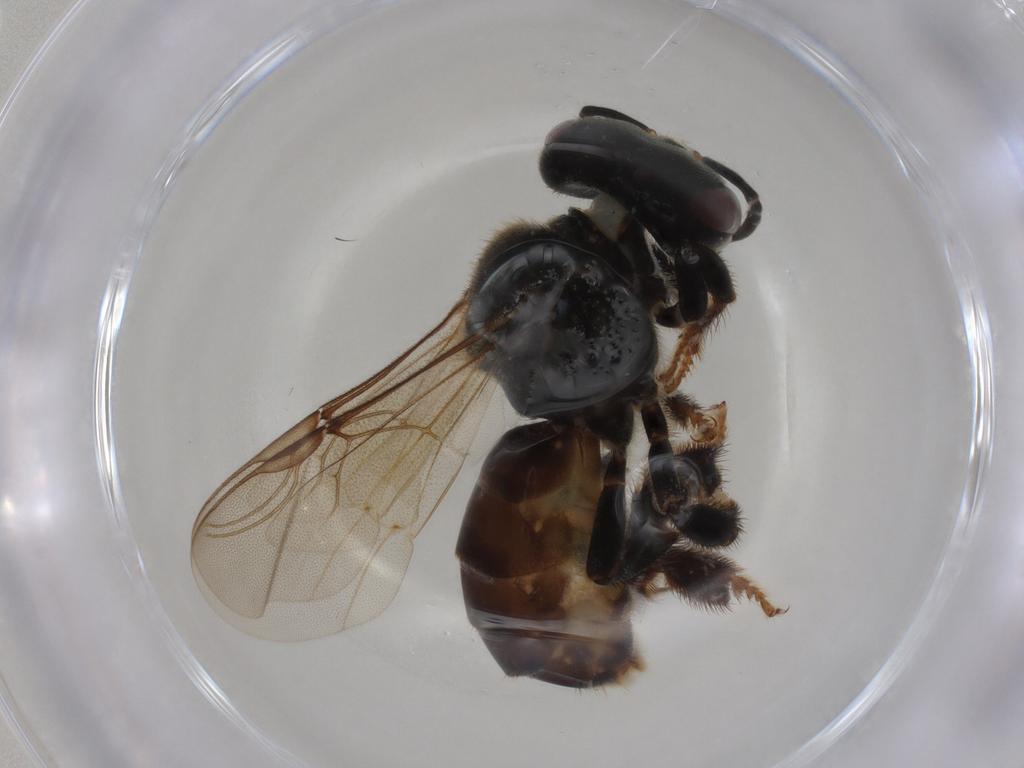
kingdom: Animalia
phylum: Arthropoda
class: Insecta
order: Hymenoptera
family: Apidae
